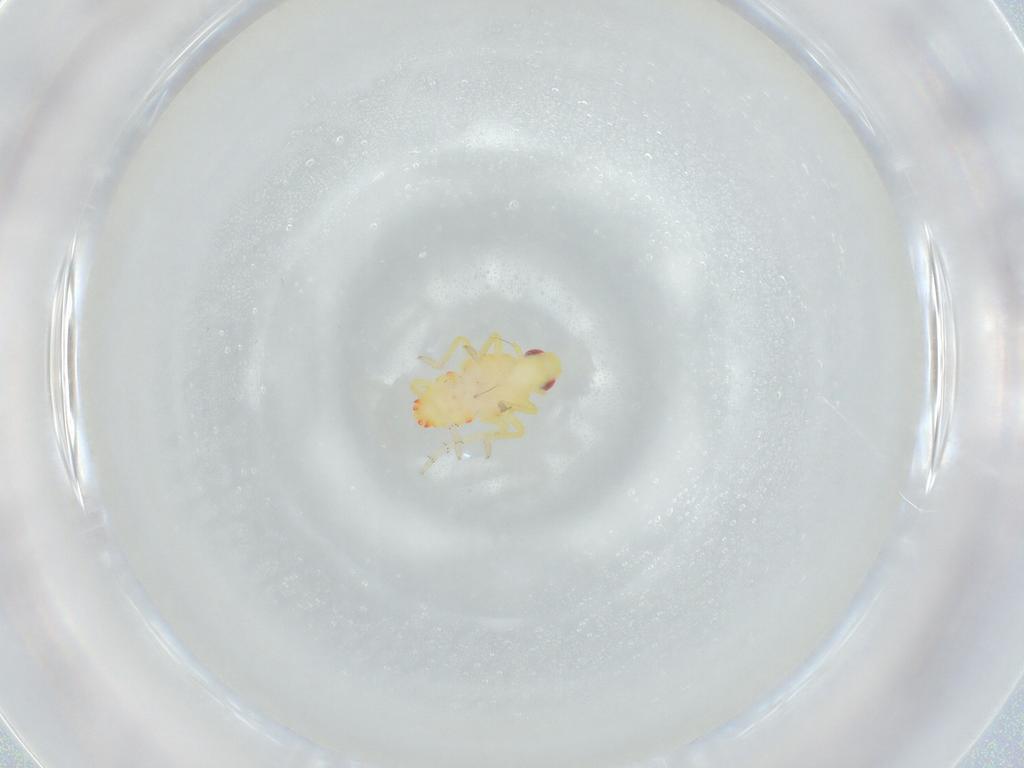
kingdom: Animalia
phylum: Arthropoda
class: Insecta
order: Hemiptera
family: Tropiduchidae
